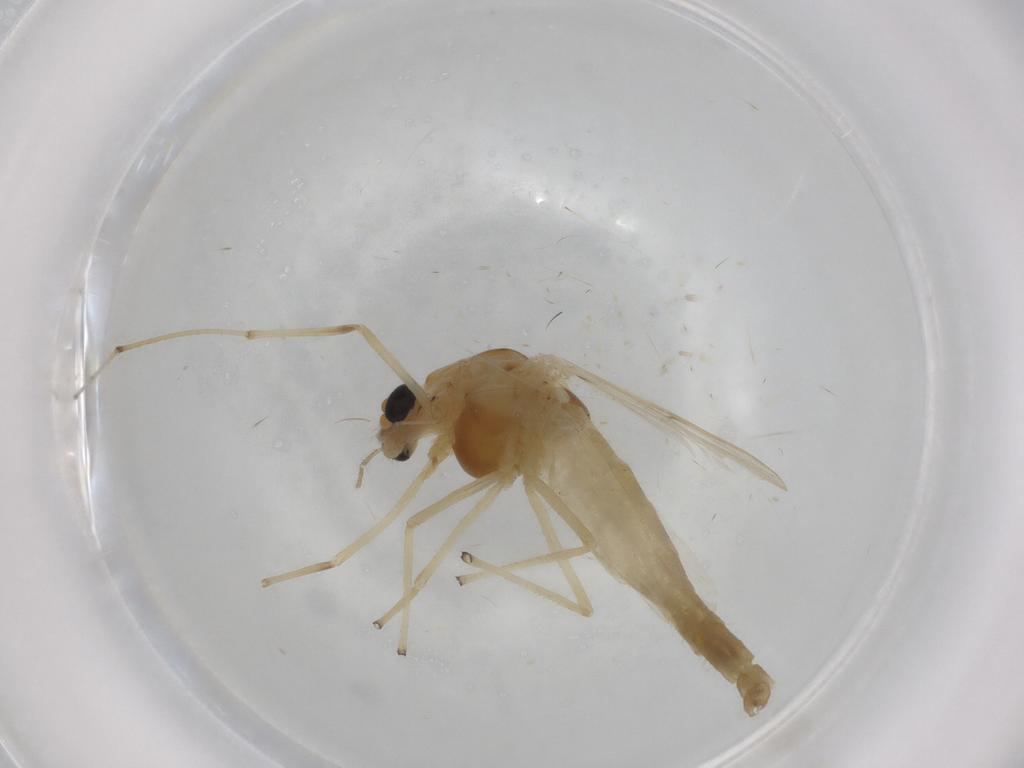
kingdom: Animalia
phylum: Arthropoda
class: Insecta
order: Diptera
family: Chironomidae
